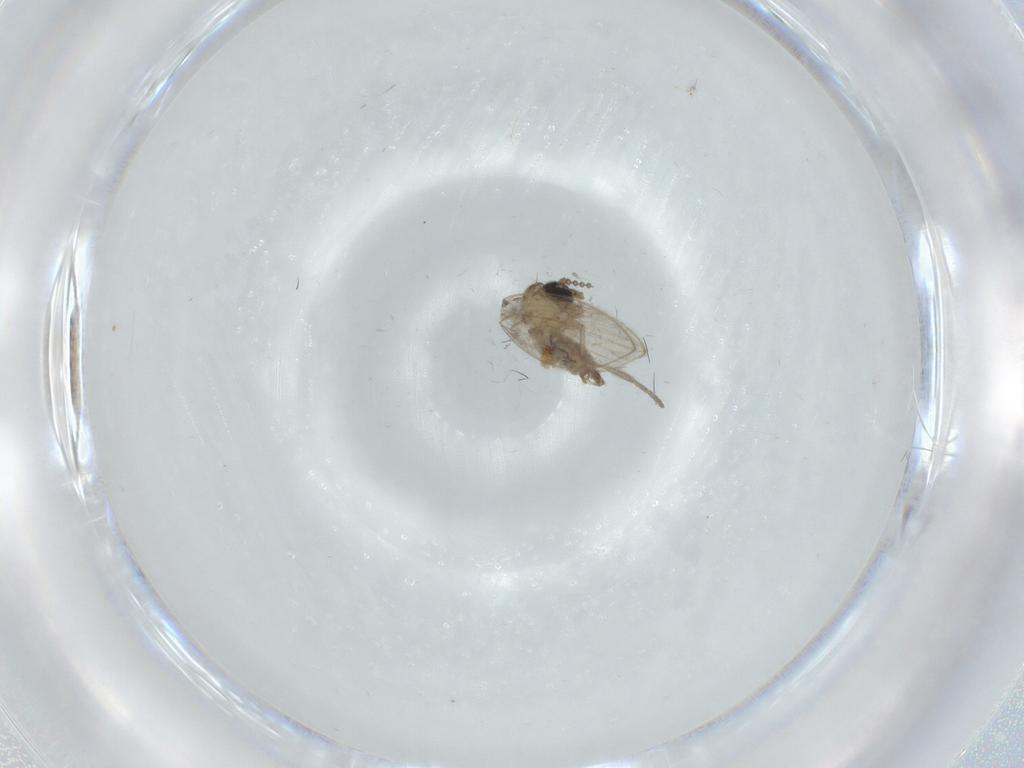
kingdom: Animalia
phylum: Arthropoda
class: Insecta
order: Diptera
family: Psychodidae
